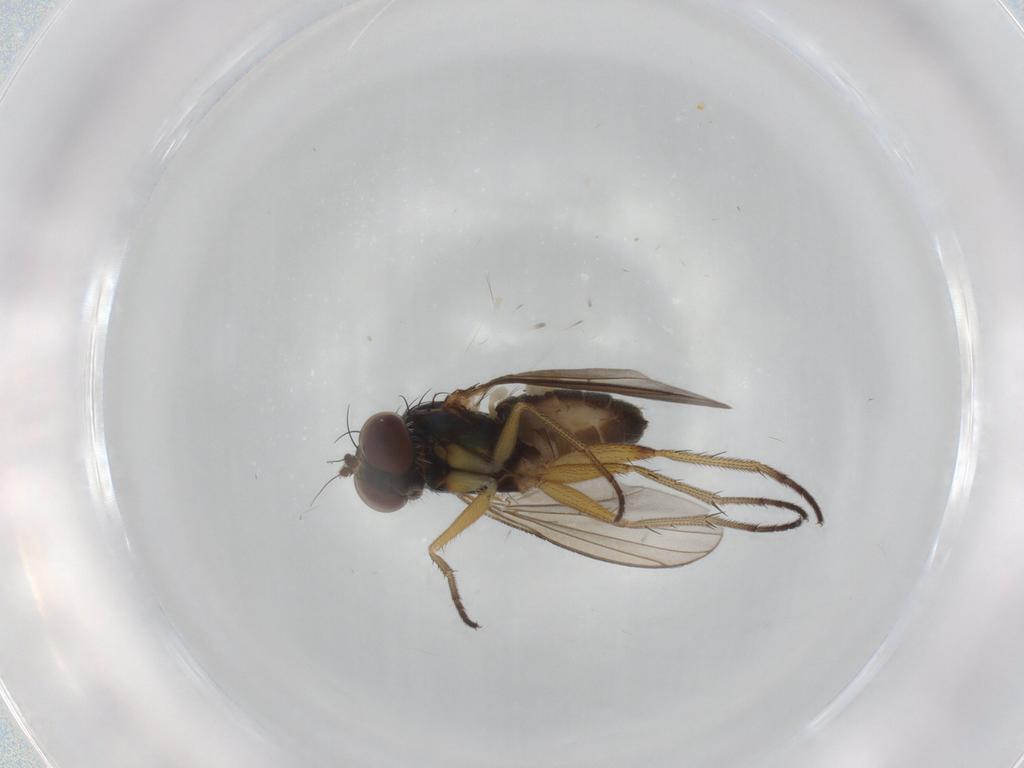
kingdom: Animalia
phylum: Arthropoda
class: Insecta
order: Diptera
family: Dolichopodidae
